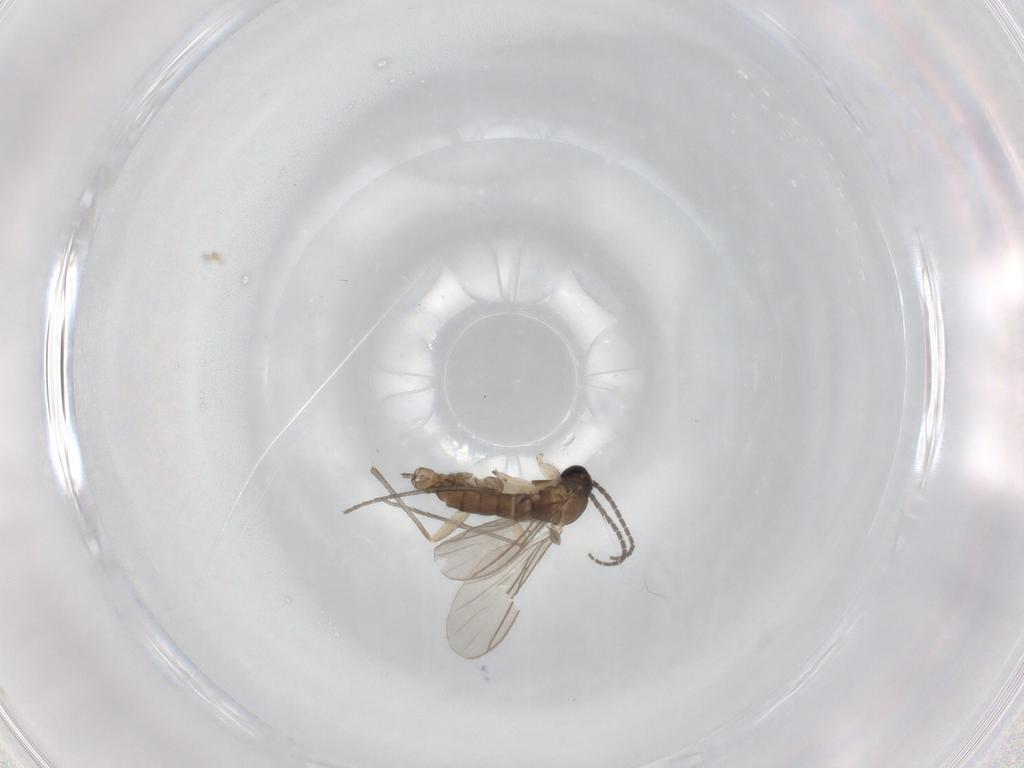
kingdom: Animalia
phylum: Arthropoda
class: Insecta
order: Diptera
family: Sciaridae
